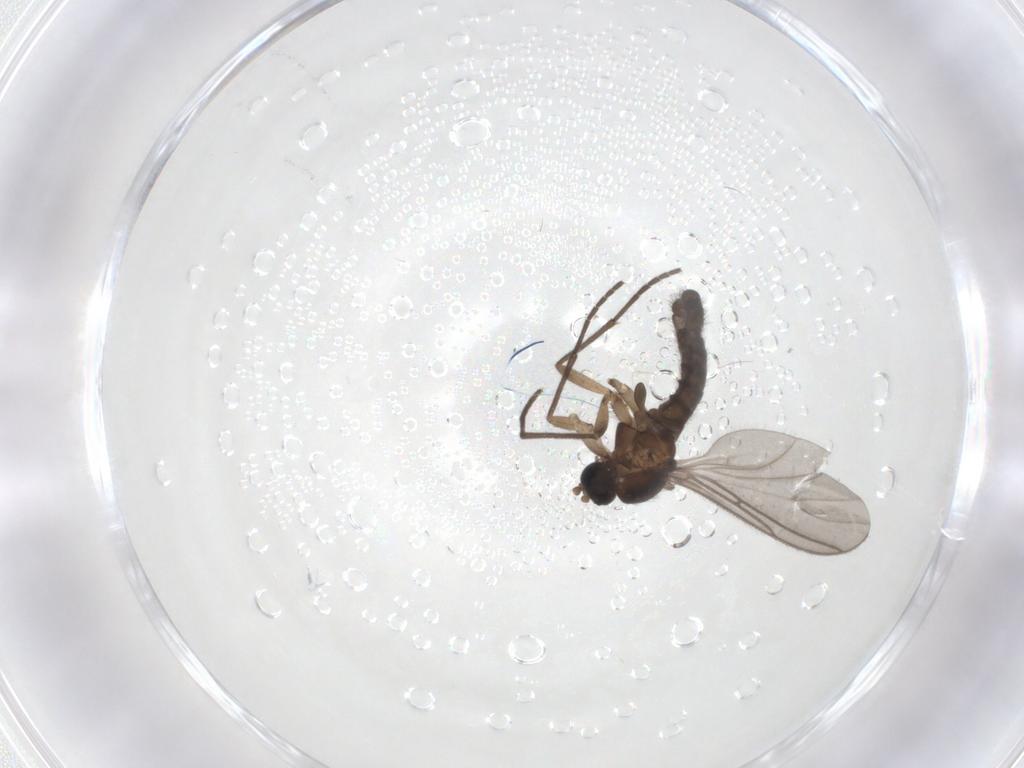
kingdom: Animalia
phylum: Arthropoda
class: Insecta
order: Diptera
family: Sciaridae
